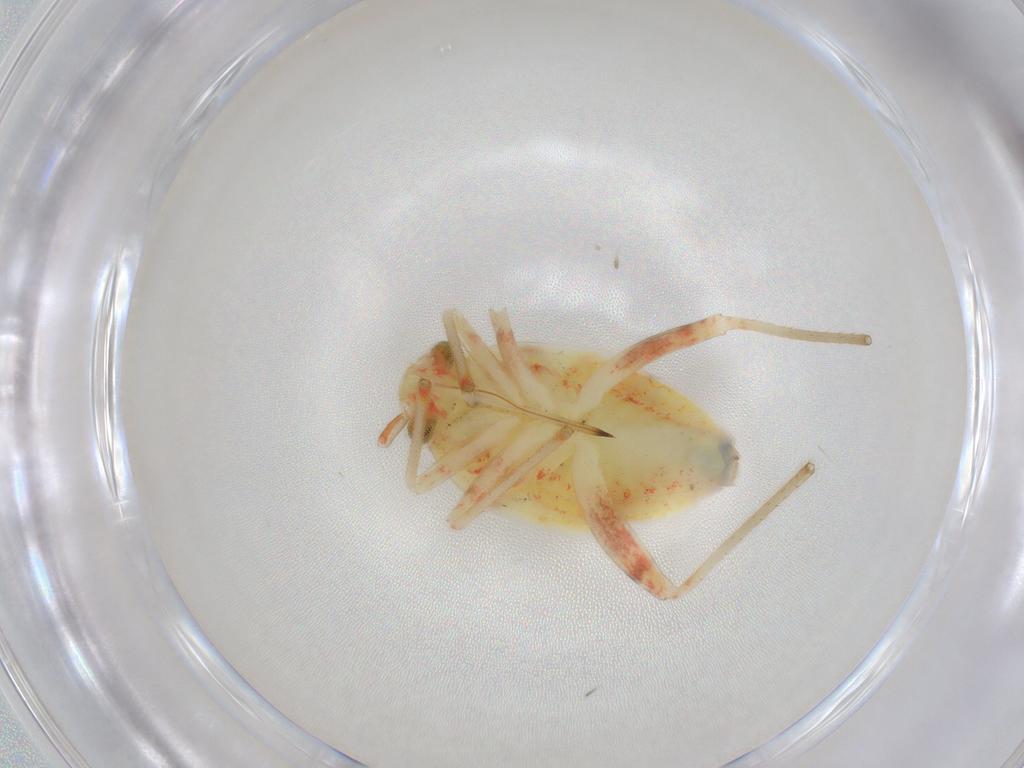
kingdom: Animalia
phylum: Arthropoda
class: Insecta
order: Hemiptera
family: Miridae
